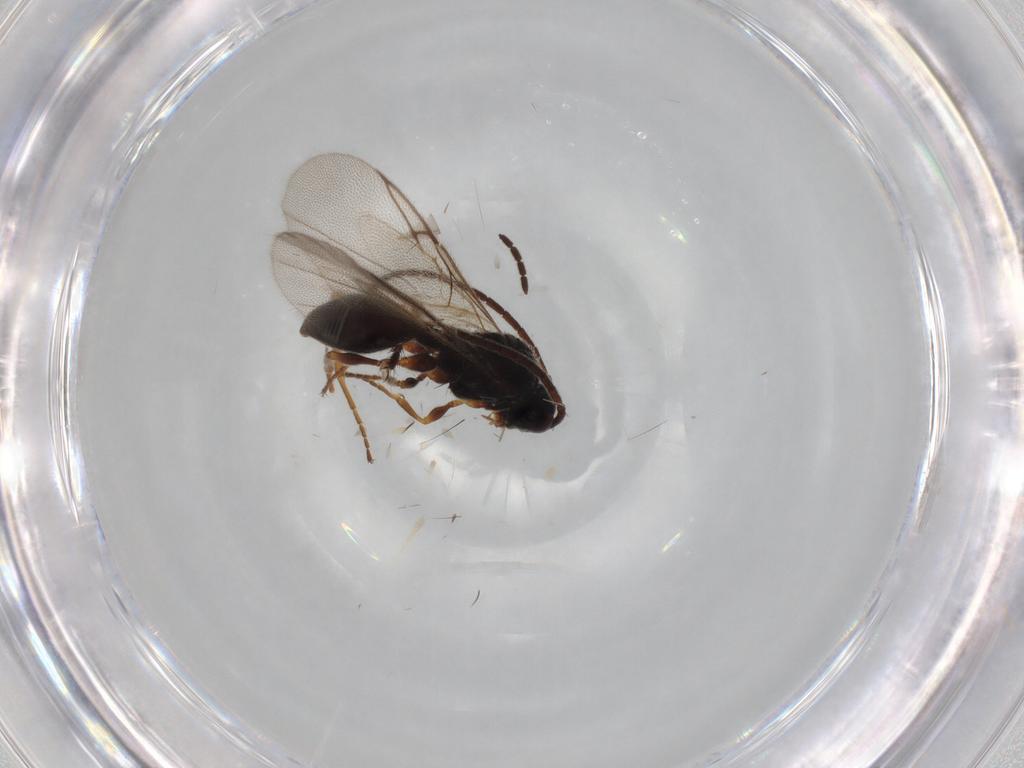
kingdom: Animalia
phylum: Arthropoda
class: Insecta
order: Hymenoptera
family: Diapriidae
